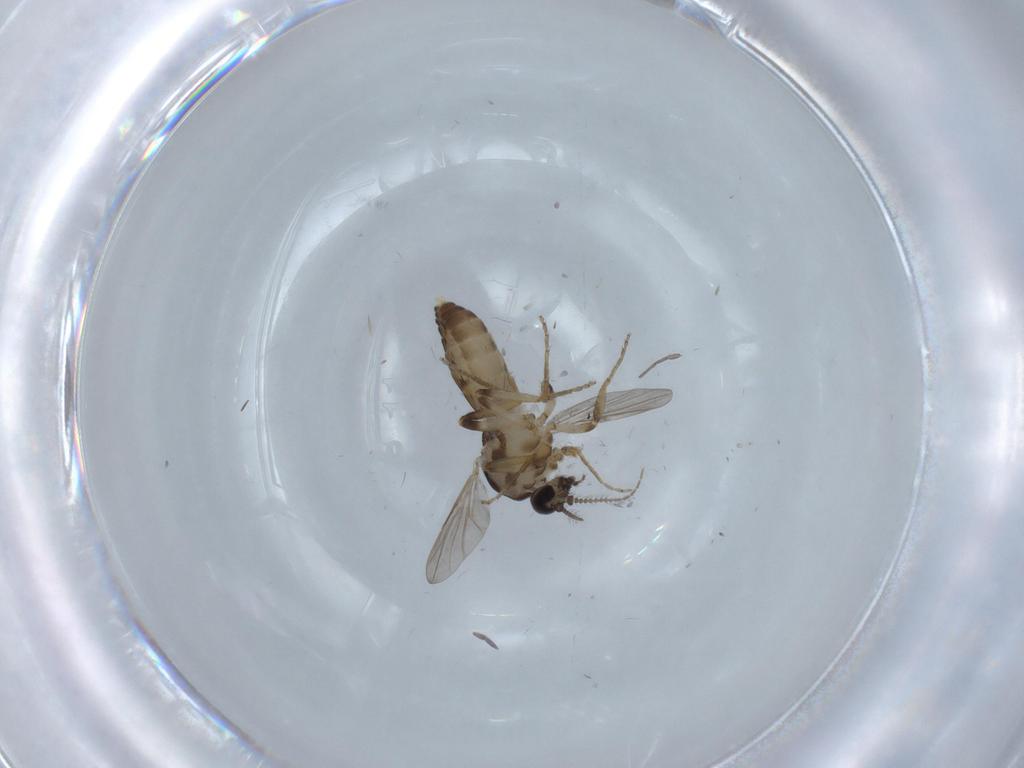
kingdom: Animalia
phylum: Arthropoda
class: Insecta
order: Diptera
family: Ceratopogonidae
